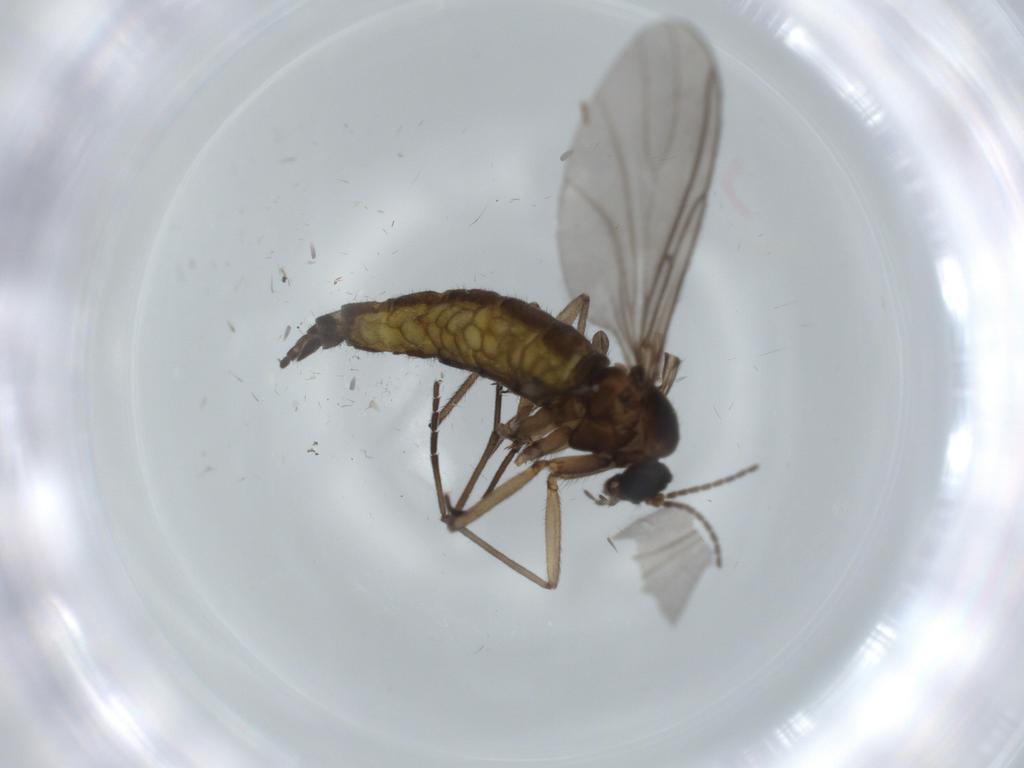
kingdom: Animalia
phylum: Arthropoda
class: Insecta
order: Diptera
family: Sciaridae
